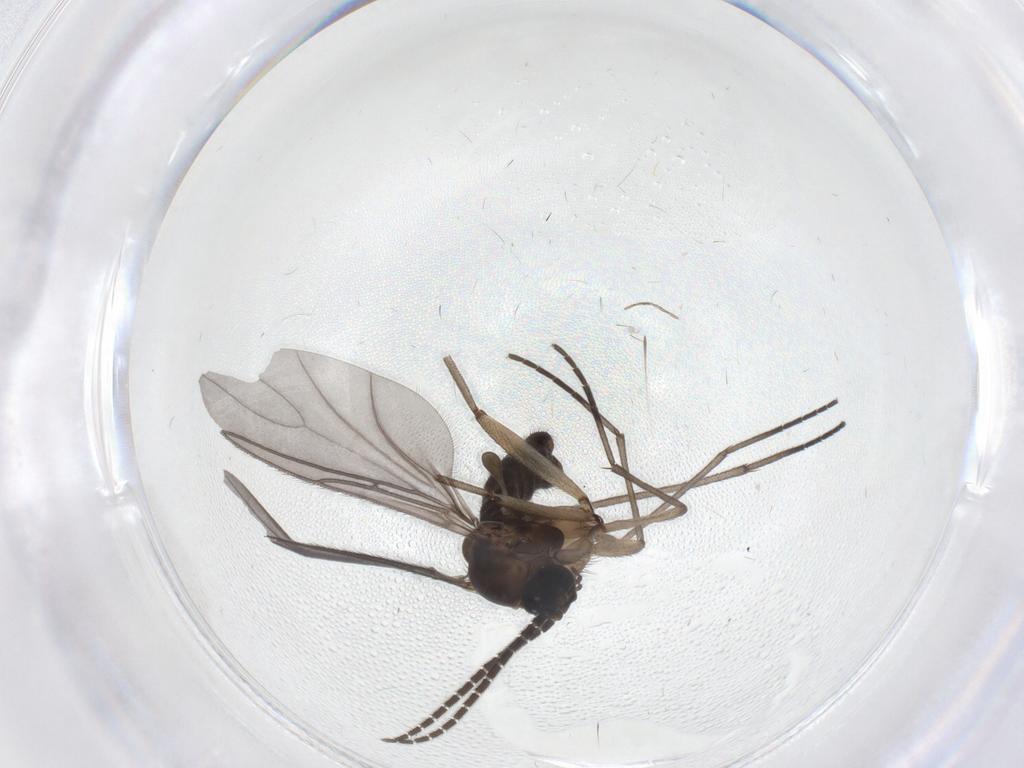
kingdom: Animalia
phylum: Arthropoda
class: Insecta
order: Diptera
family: Sciaridae
